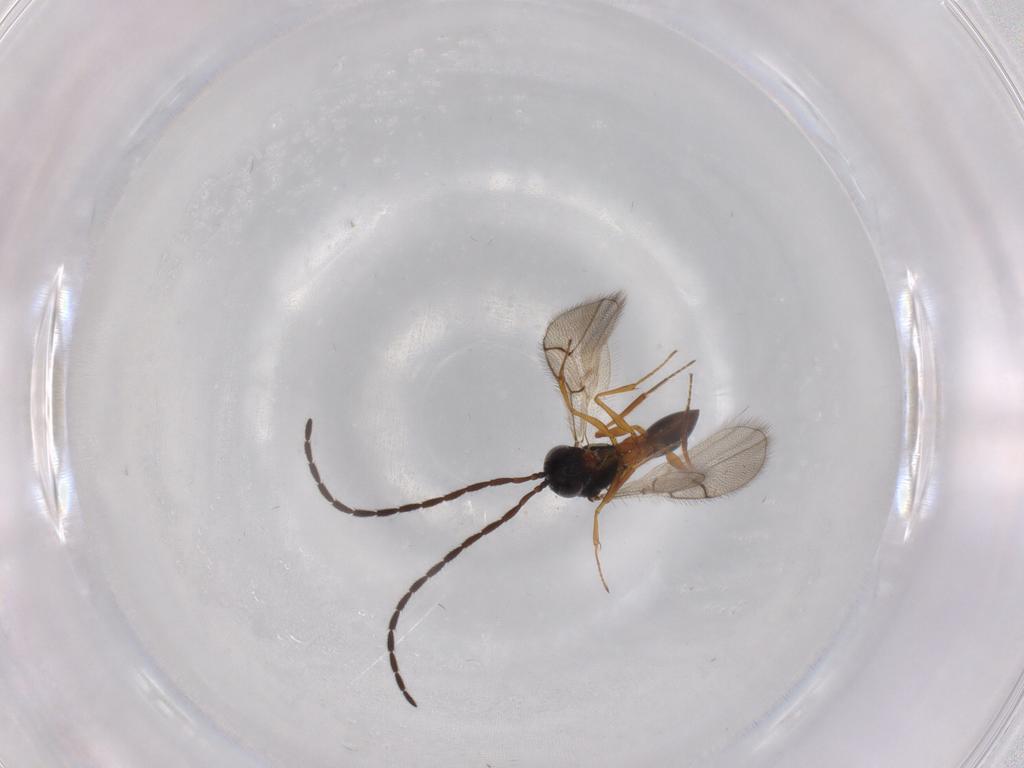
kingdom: Animalia
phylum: Arthropoda
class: Insecta
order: Hymenoptera
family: Figitidae
